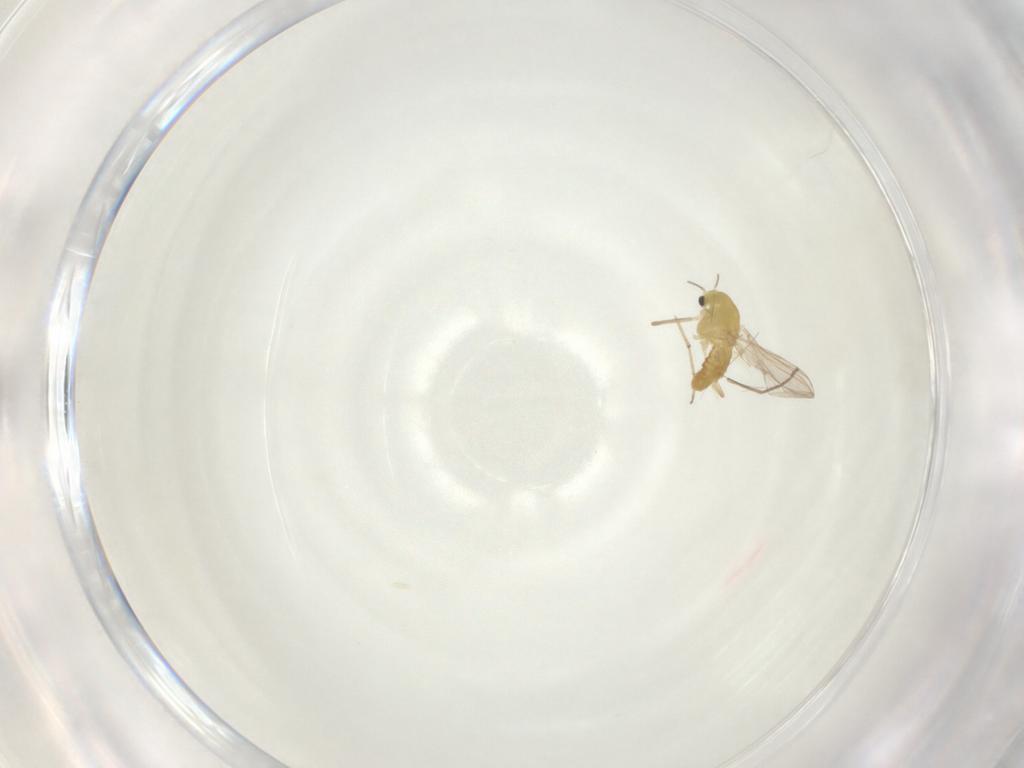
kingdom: Animalia
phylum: Arthropoda
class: Insecta
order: Diptera
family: Chironomidae
